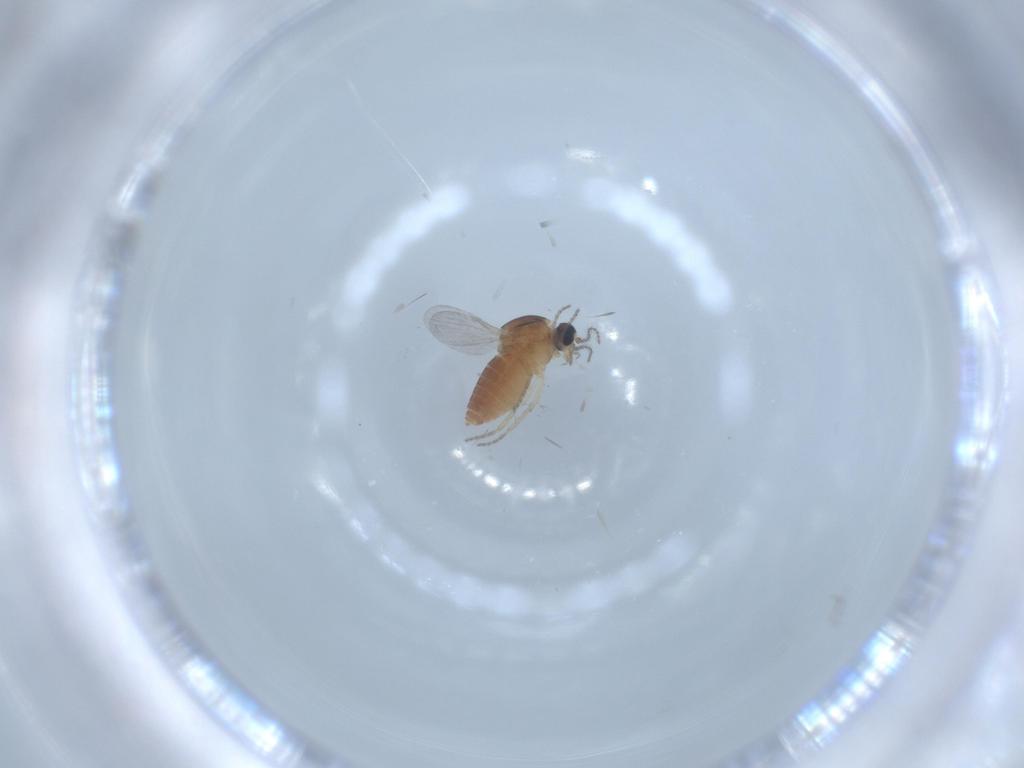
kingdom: Animalia
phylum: Arthropoda
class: Insecta
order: Diptera
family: Ceratopogonidae
